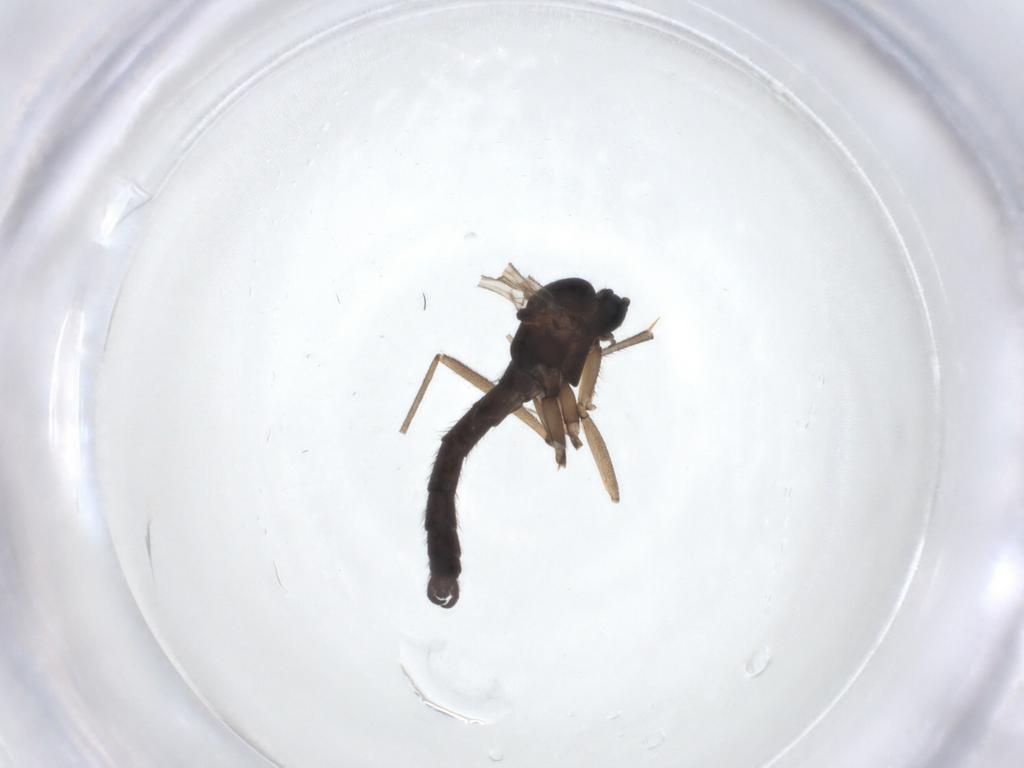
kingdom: Animalia
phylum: Arthropoda
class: Insecta
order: Diptera
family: Sciaridae
